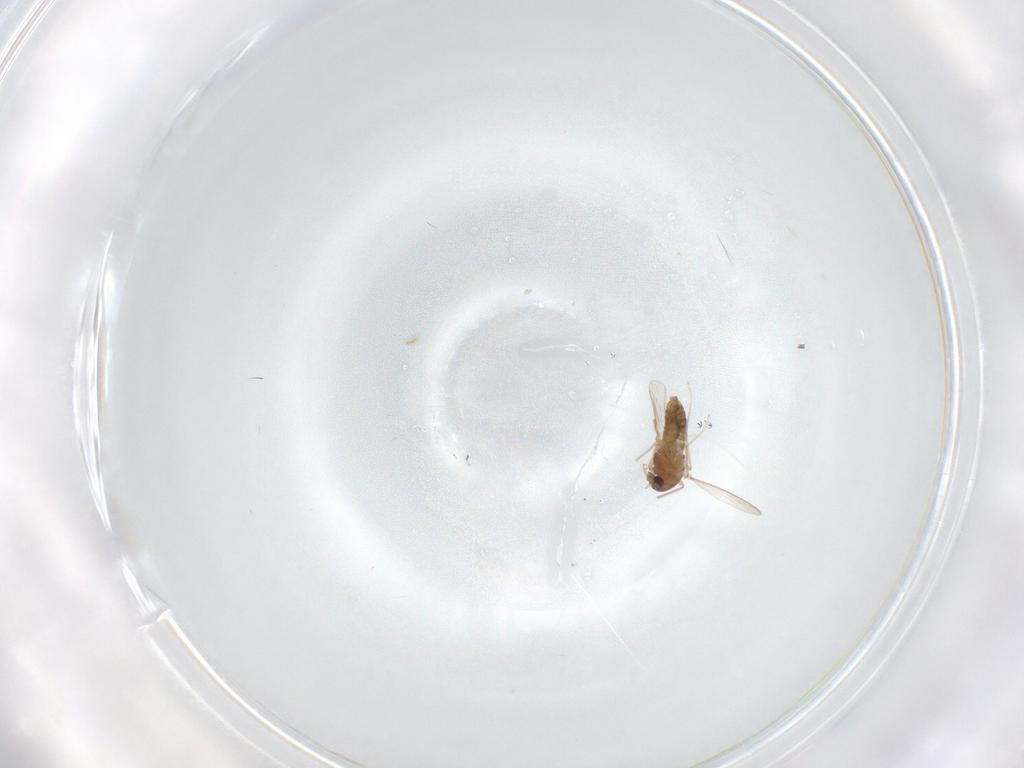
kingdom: Animalia
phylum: Arthropoda
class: Insecta
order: Diptera
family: Chironomidae
